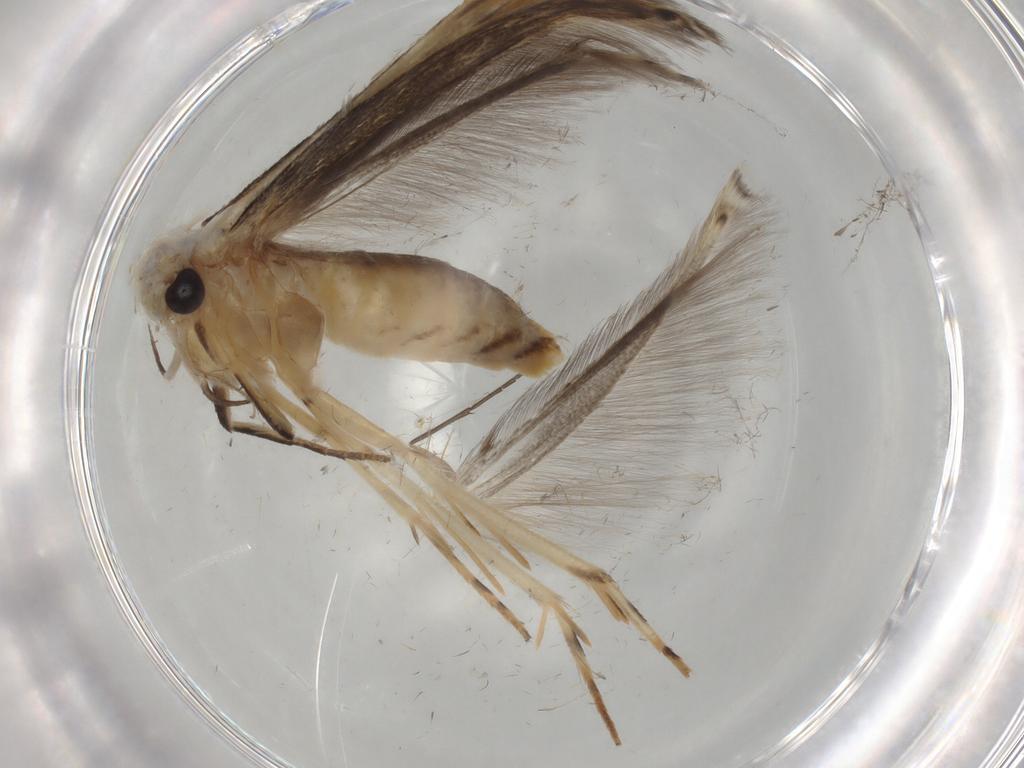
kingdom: Animalia
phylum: Arthropoda
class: Insecta
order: Lepidoptera
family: Gelechiidae
